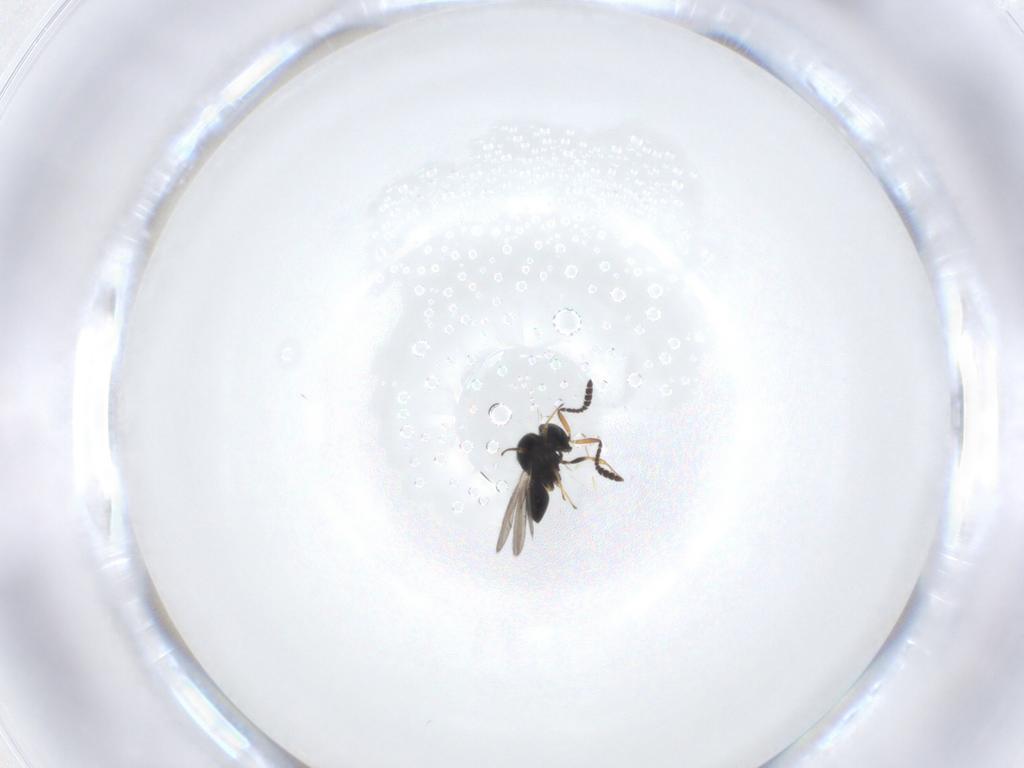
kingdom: Animalia
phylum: Arthropoda
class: Insecta
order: Hymenoptera
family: Scelionidae
